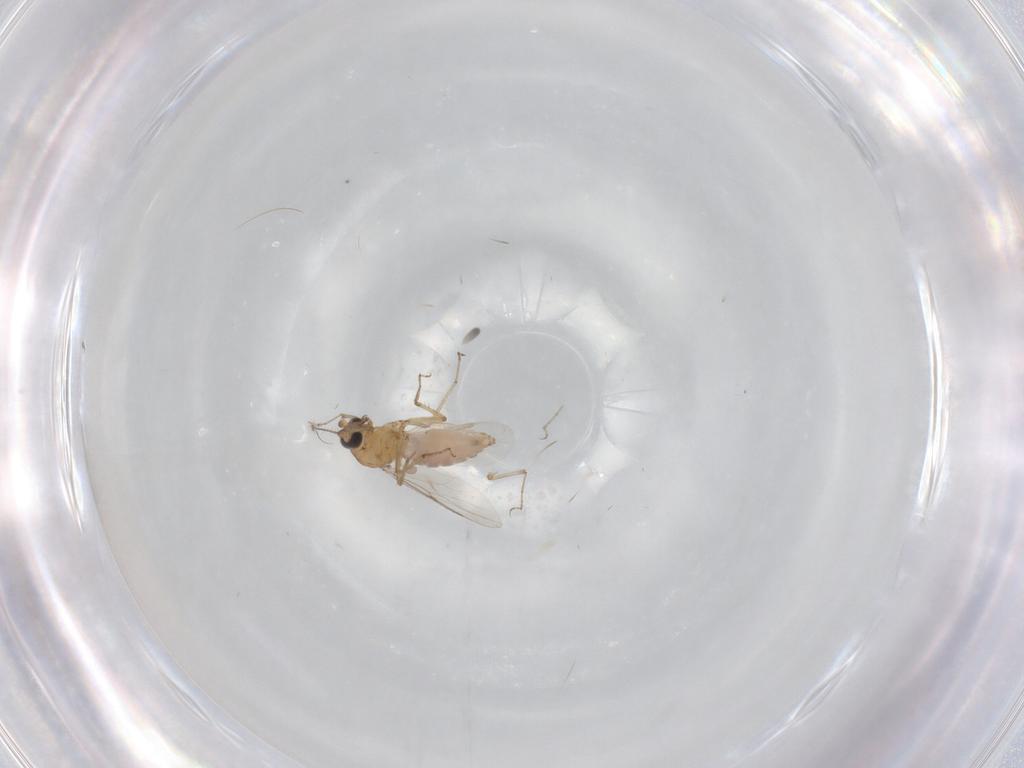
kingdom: Animalia
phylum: Arthropoda
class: Insecta
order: Diptera
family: Ceratopogonidae
